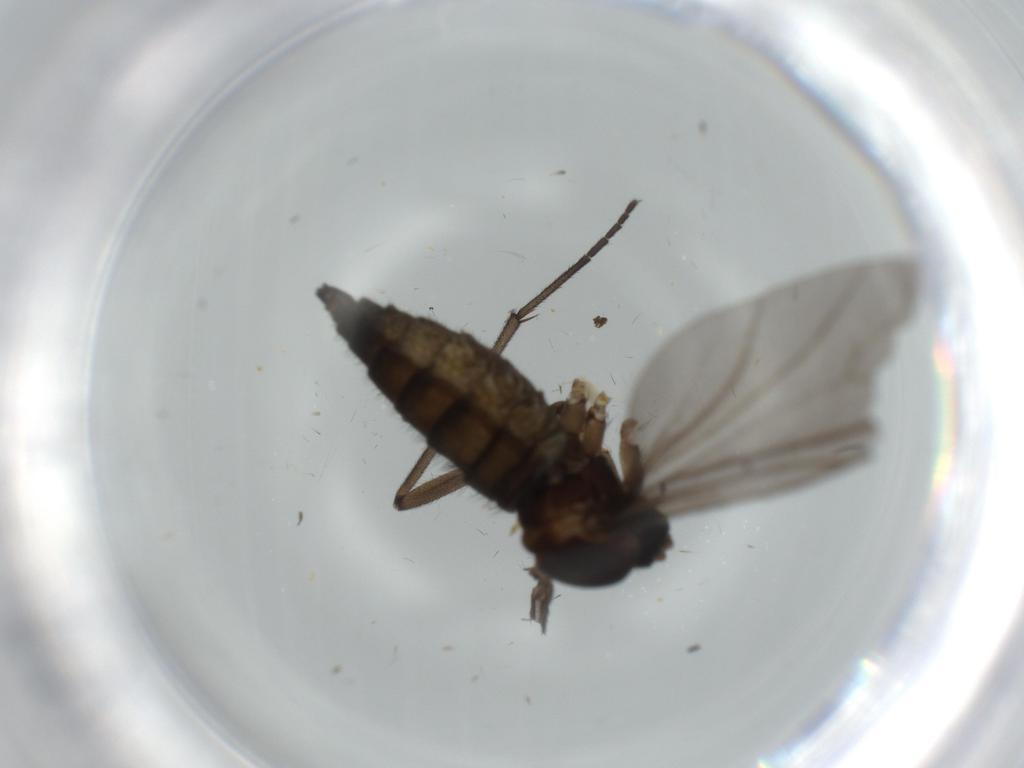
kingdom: Animalia
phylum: Arthropoda
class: Insecta
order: Diptera
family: Sciaridae
